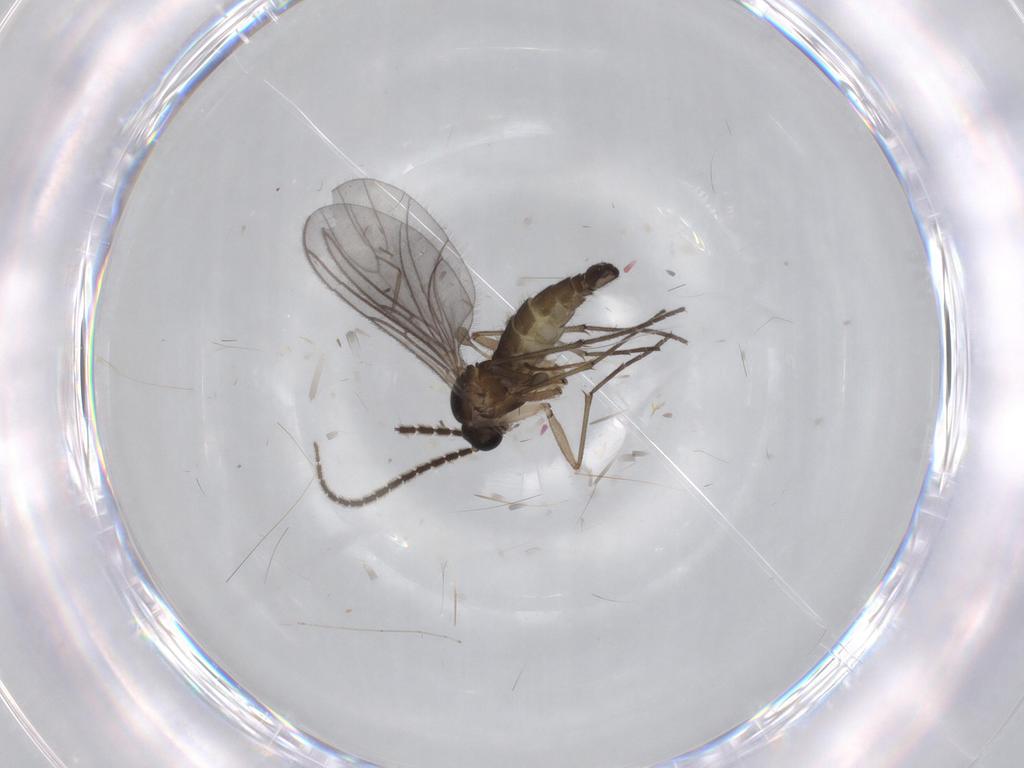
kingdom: Animalia
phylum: Arthropoda
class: Insecta
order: Diptera
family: Chironomidae
